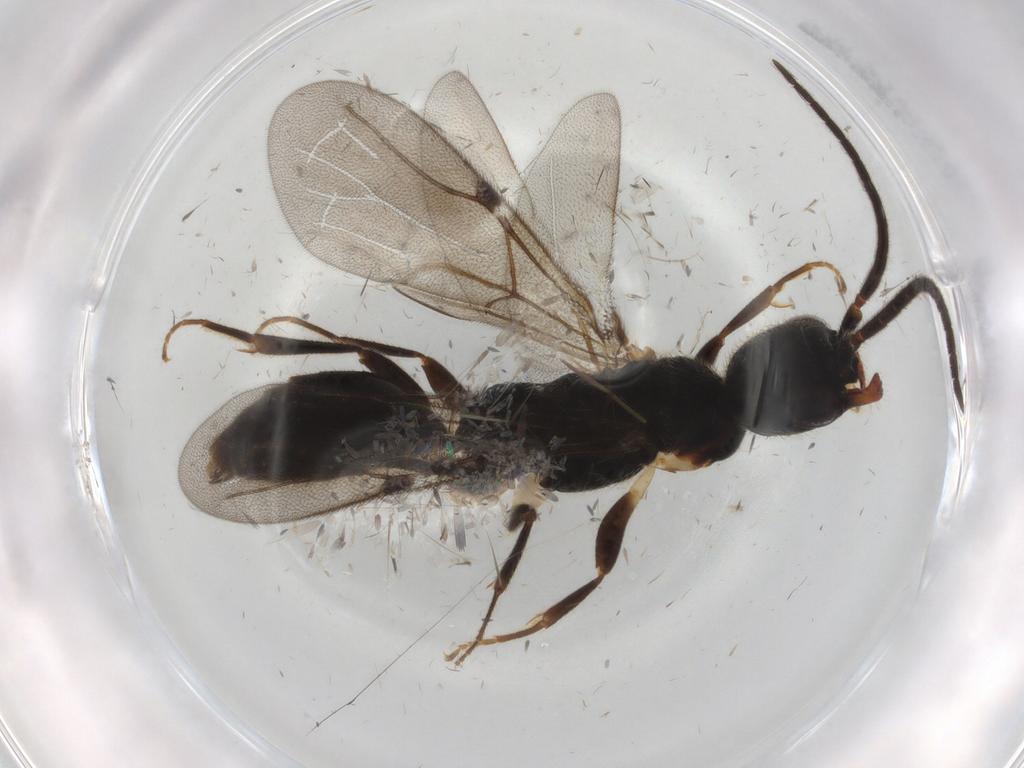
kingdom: Animalia
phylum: Arthropoda
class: Insecta
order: Hymenoptera
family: Bethylidae
